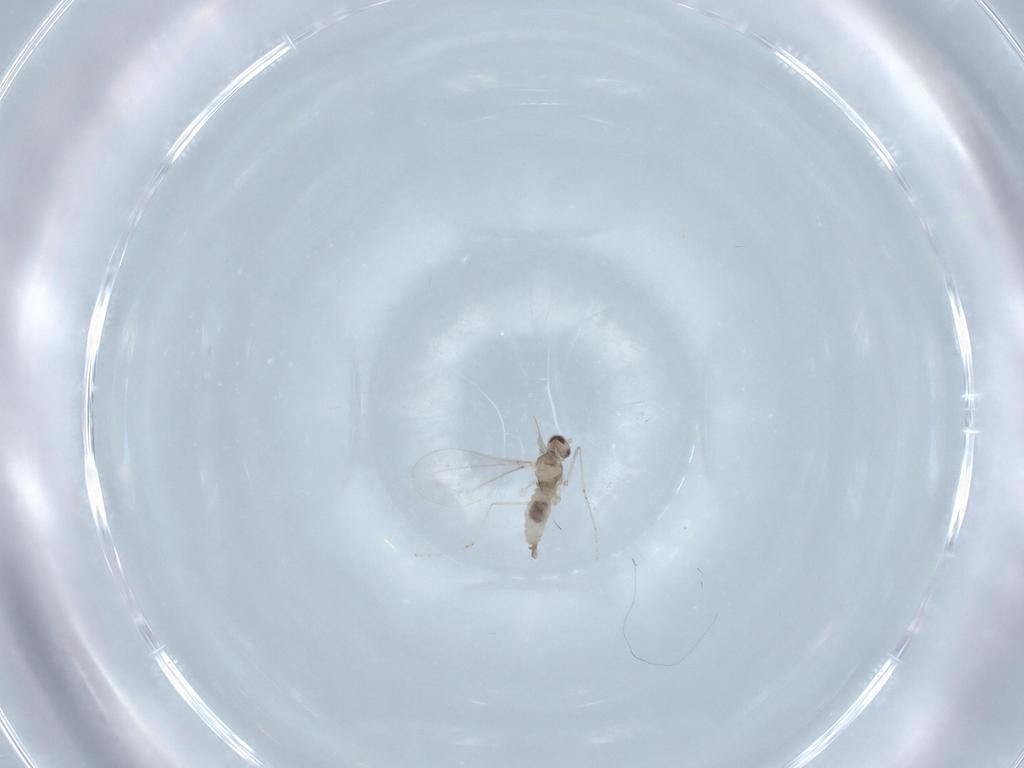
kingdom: Animalia
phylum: Arthropoda
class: Insecta
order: Diptera
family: Cecidomyiidae
